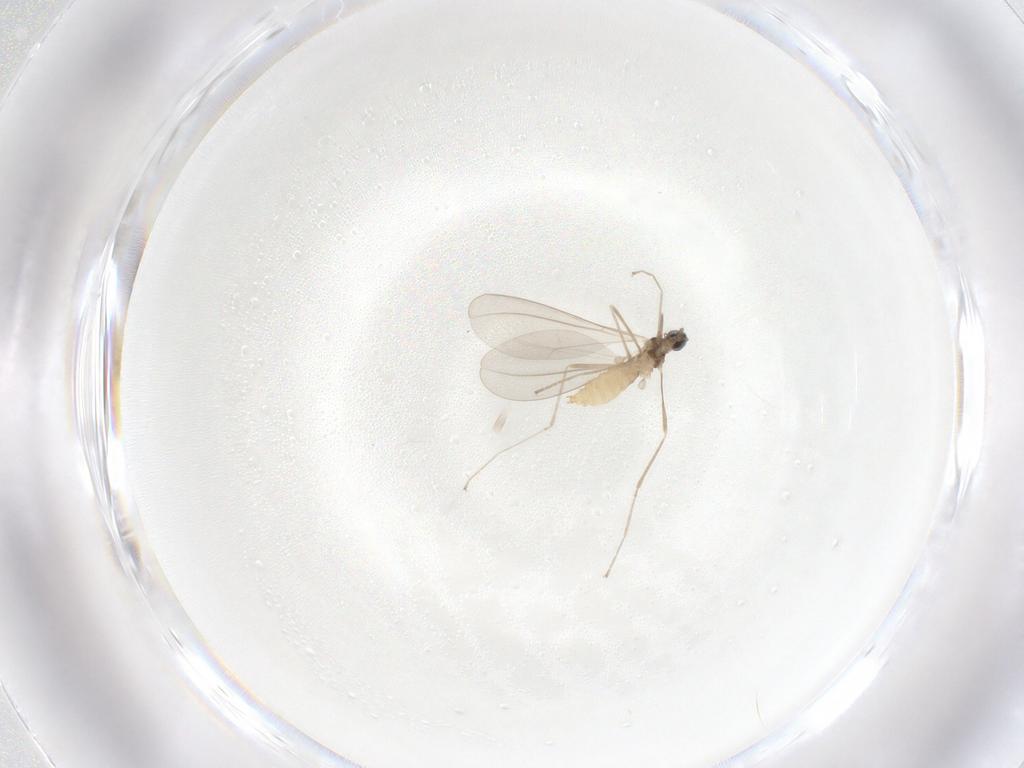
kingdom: Animalia
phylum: Arthropoda
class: Insecta
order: Diptera
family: Cecidomyiidae
